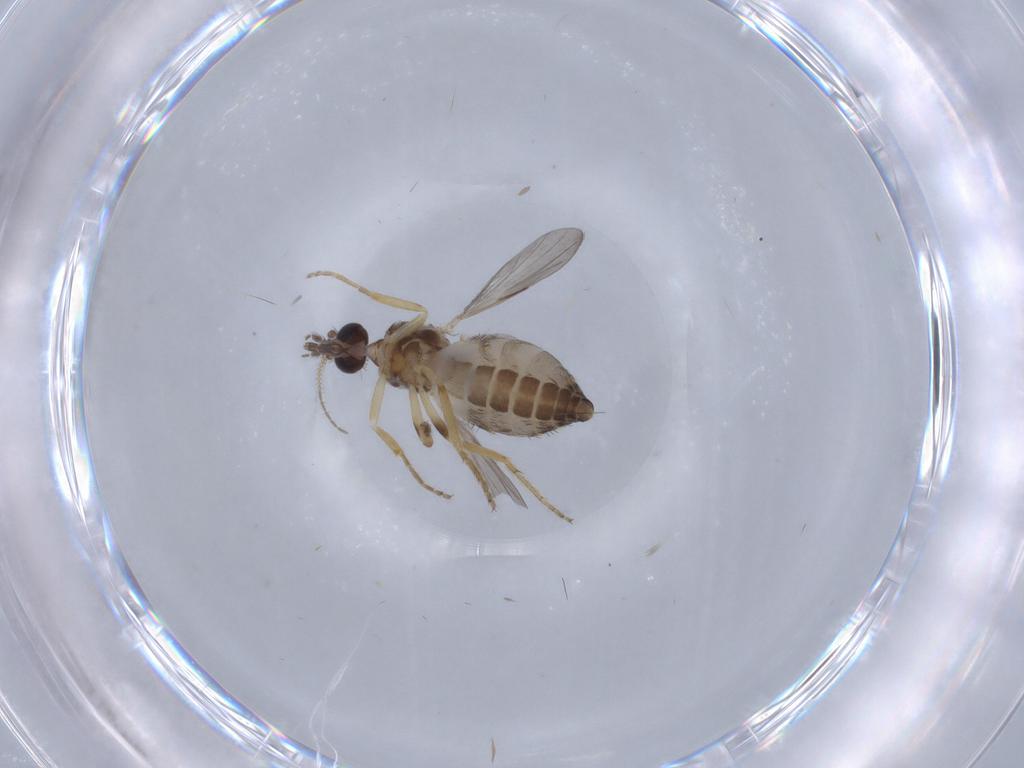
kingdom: Animalia
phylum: Arthropoda
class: Insecta
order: Diptera
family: Ceratopogonidae
